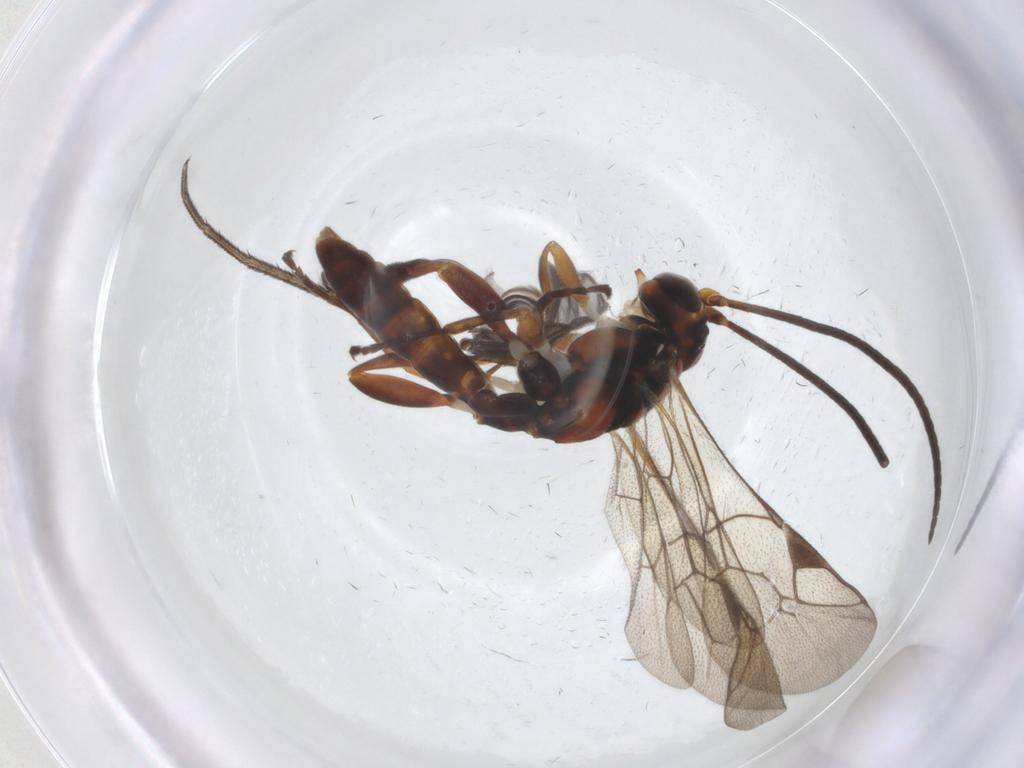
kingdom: Animalia
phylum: Arthropoda
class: Insecta
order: Hymenoptera
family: Ichneumonidae
